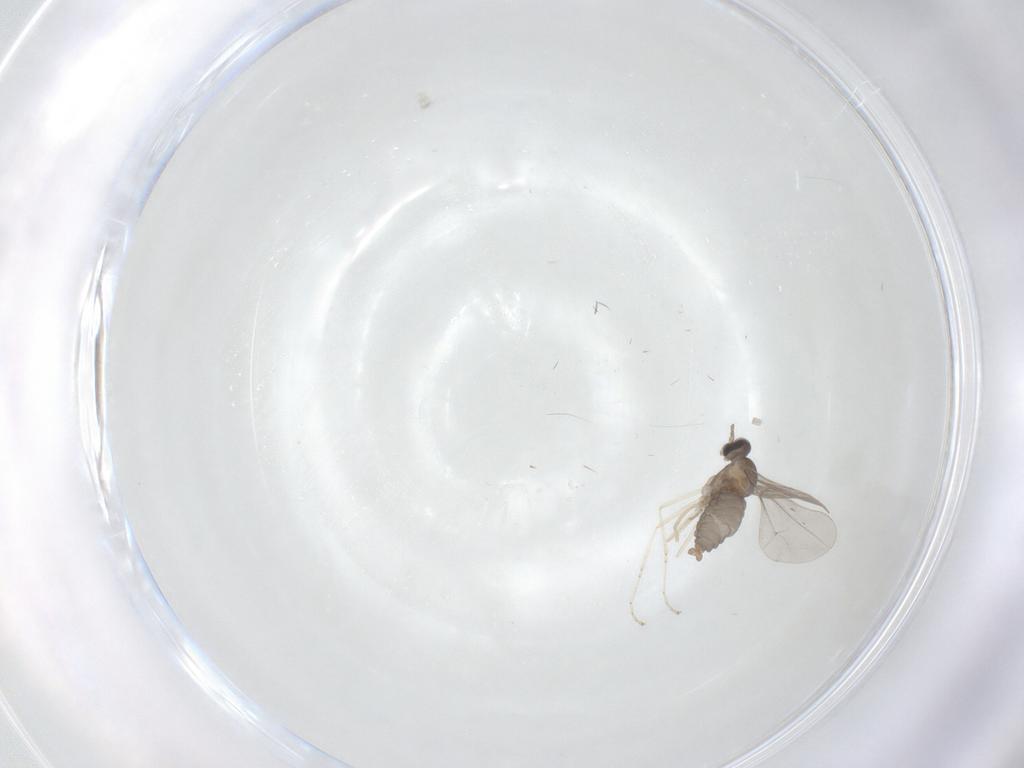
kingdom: Animalia
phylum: Arthropoda
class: Insecta
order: Diptera
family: Cecidomyiidae
